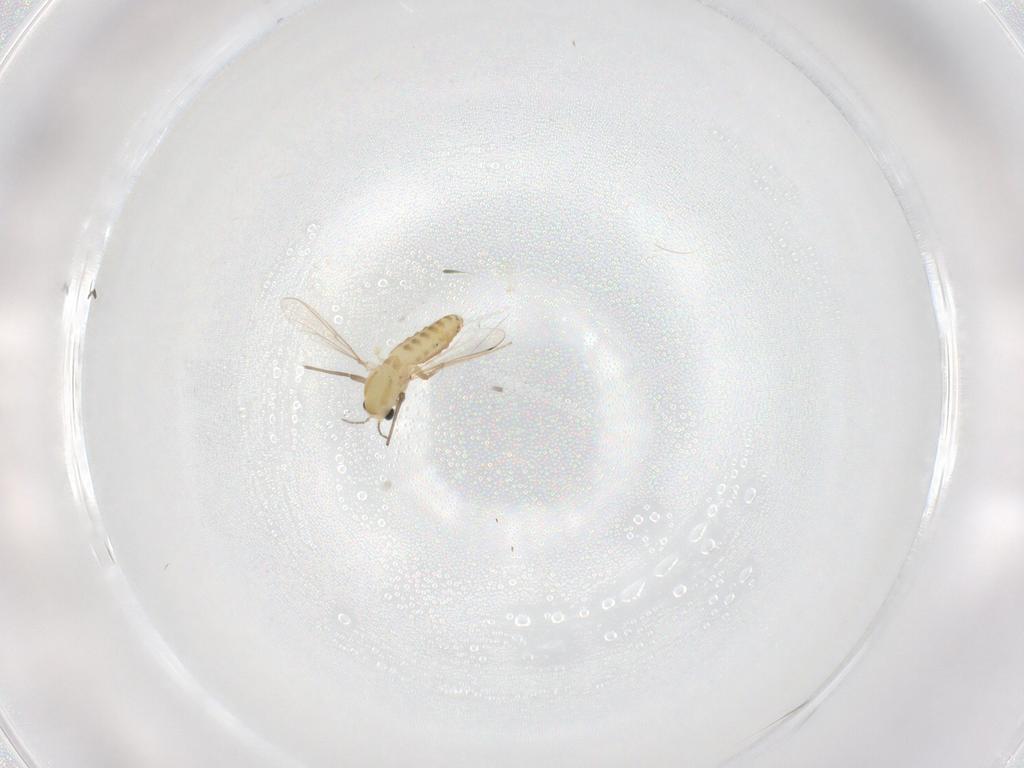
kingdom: Animalia
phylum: Arthropoda
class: Insecta
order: Diptera
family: Chironomidae
